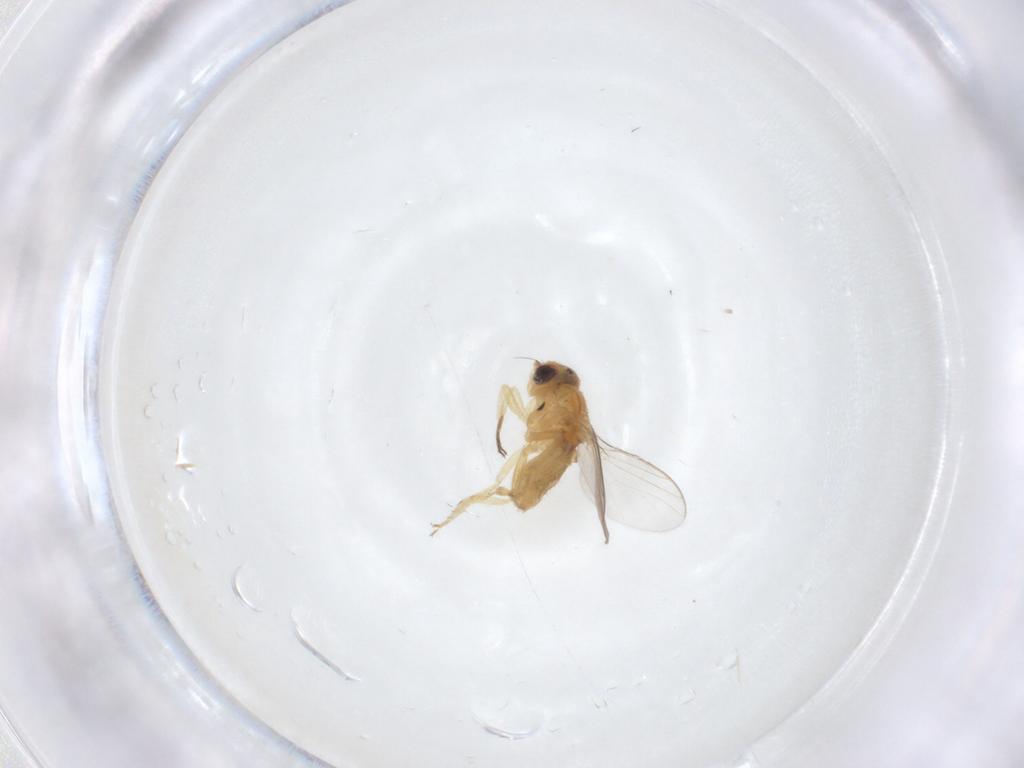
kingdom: Animalia
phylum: Arthropoda
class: Insecta
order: Diptera
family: Chloropidae
